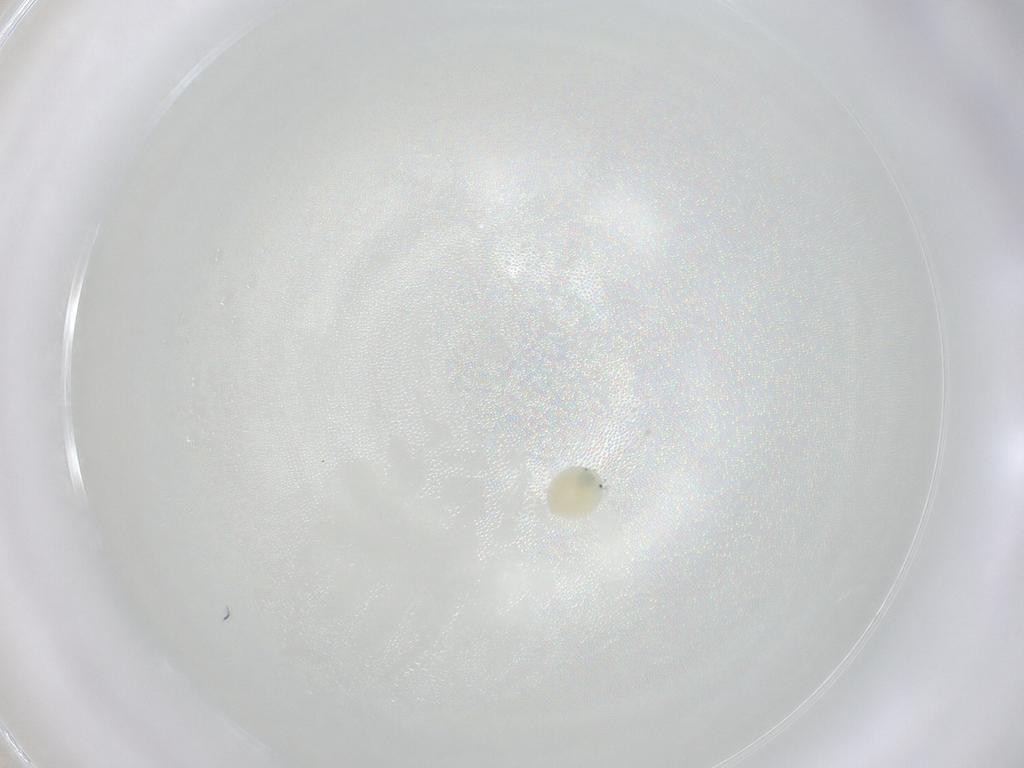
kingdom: Animalia
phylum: Arthropoda
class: Arachnida
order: Trombidiformes
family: Arrenuridae
